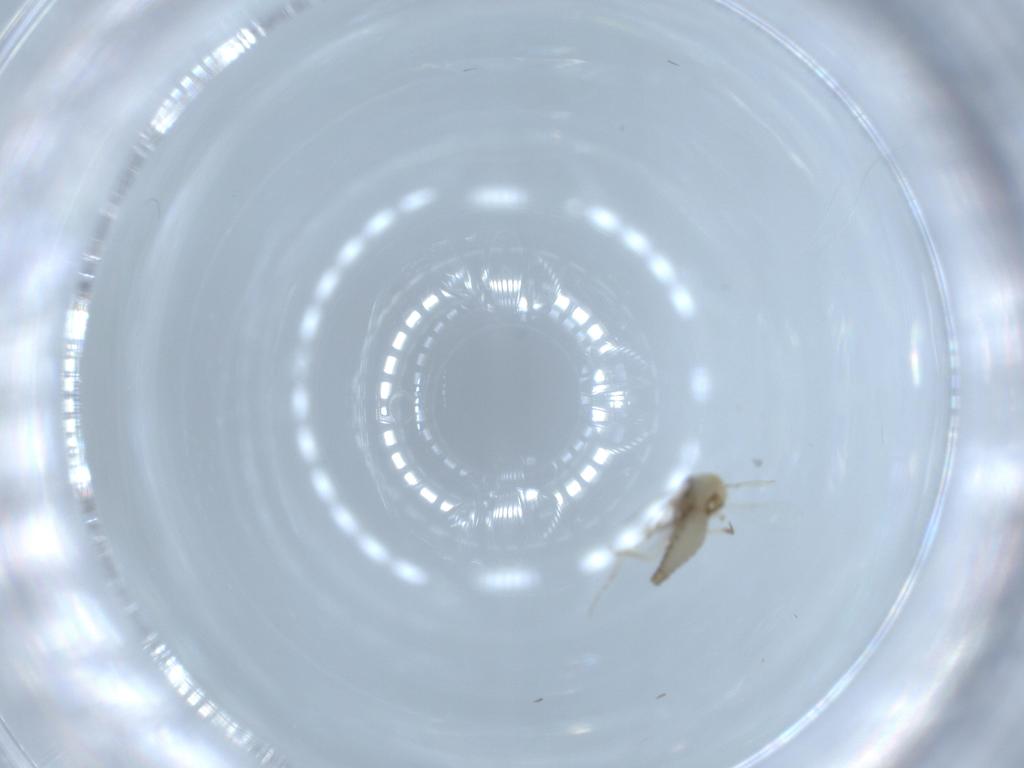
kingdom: Animalia
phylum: Arthropoda
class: Insecta
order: Diptera
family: Ceratopogonidae
